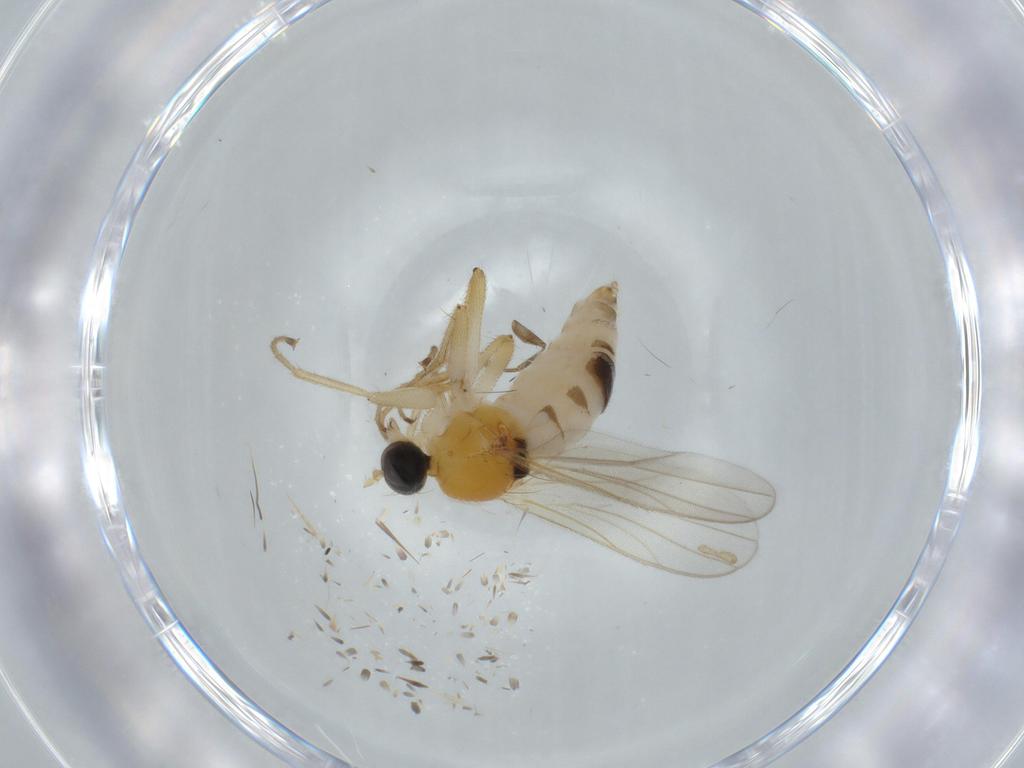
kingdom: Animalia
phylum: Arthropoda
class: Insecta
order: Diptera
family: Hybotidae
